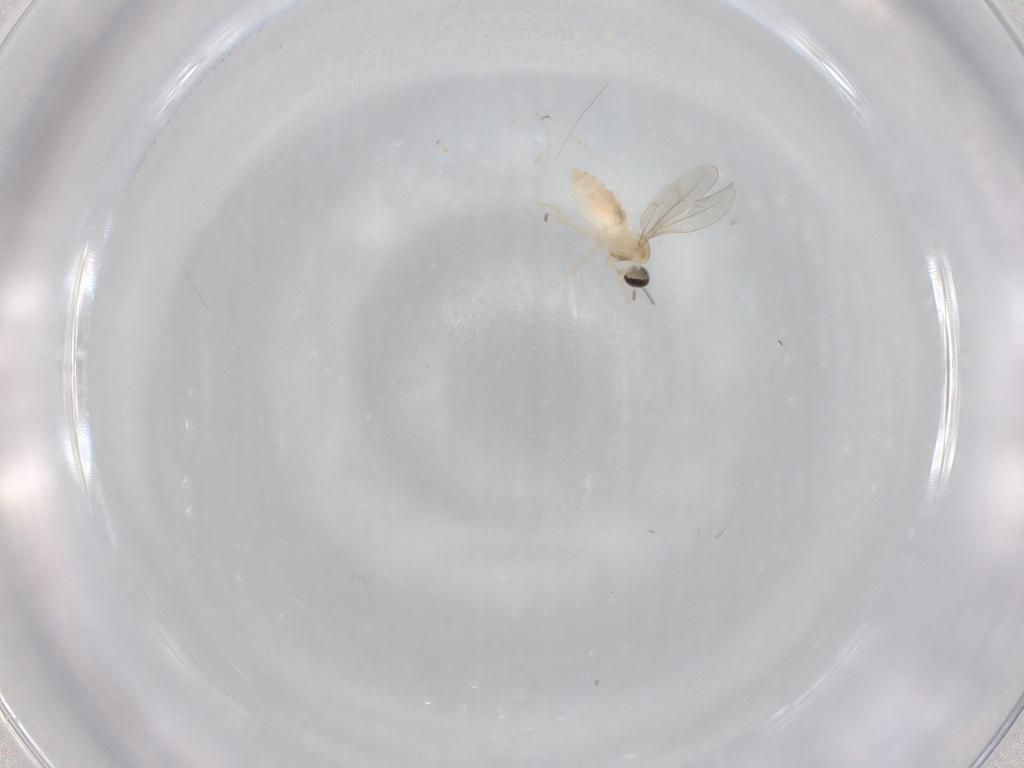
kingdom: Animalia
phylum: Arthropoda
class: Insecta
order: Diptera
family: Cecidomyiidae
